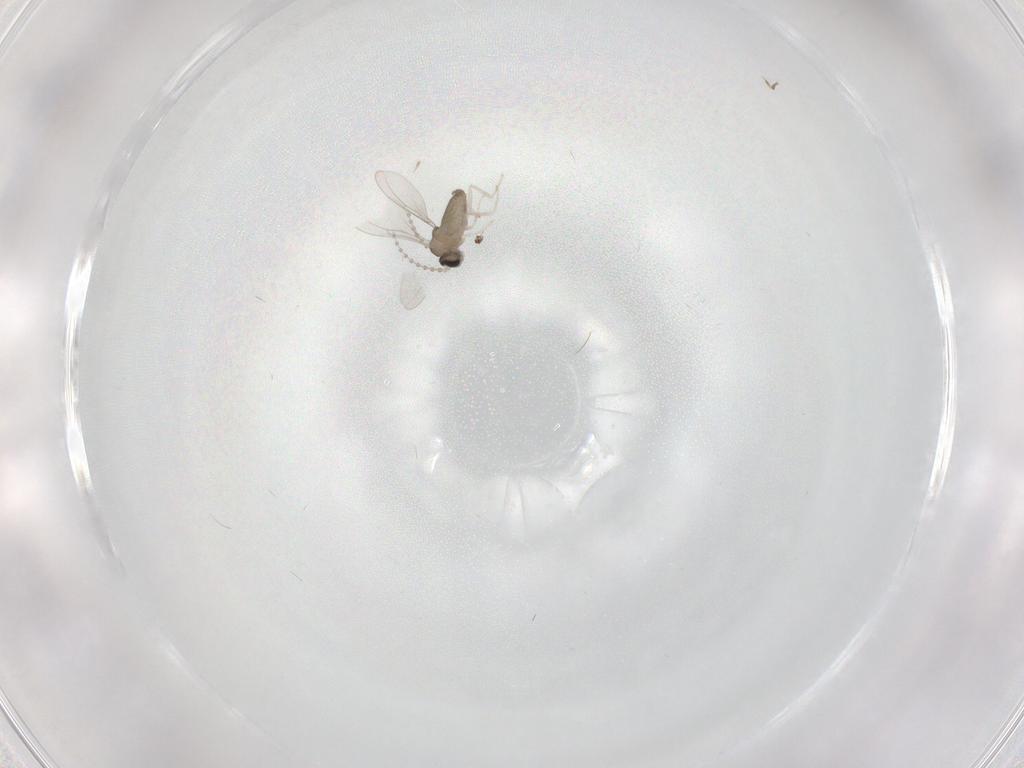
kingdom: Animalia
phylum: Arthropoda
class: Insecta
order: Diptera
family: Cecidomyiidae
